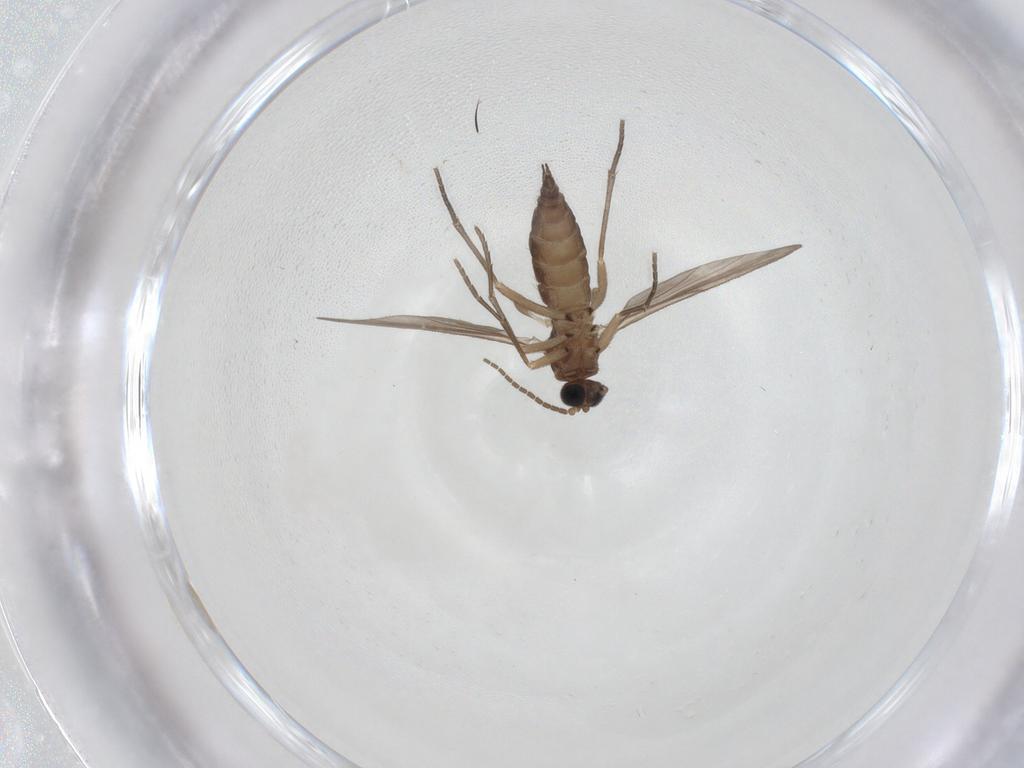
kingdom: Animalia
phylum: Arthropoda
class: Insecta
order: Diptera
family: Sciaridae
